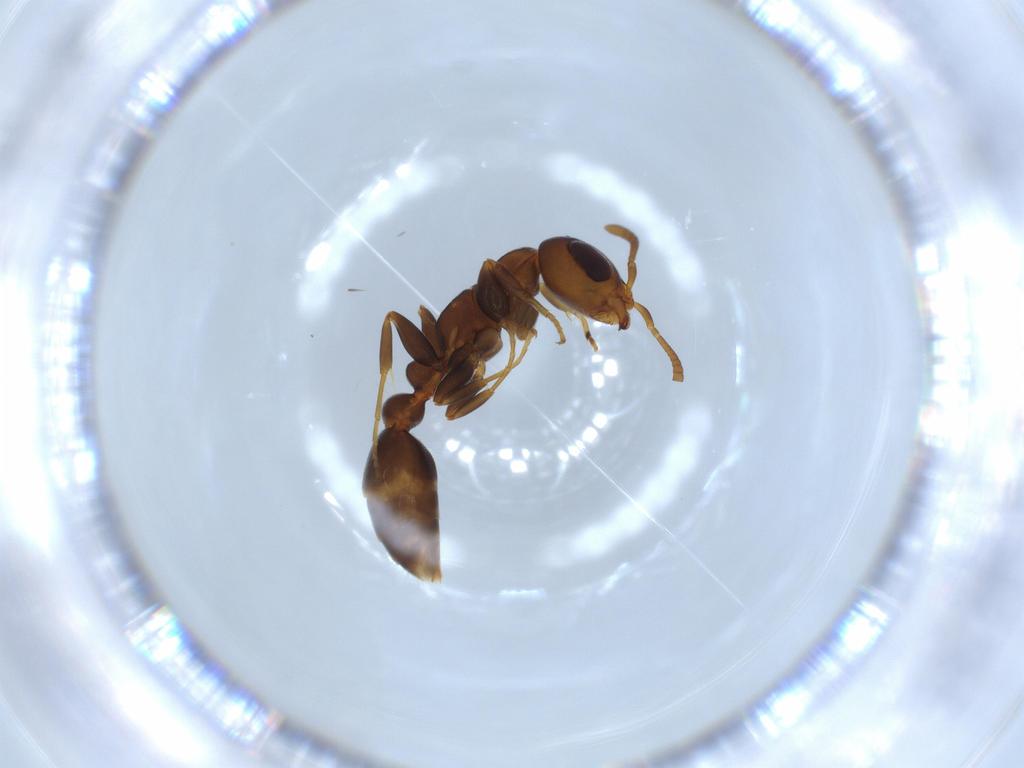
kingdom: Animalia
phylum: Arthropoda
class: Insecta
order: Hymenoptera
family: Formicidae
